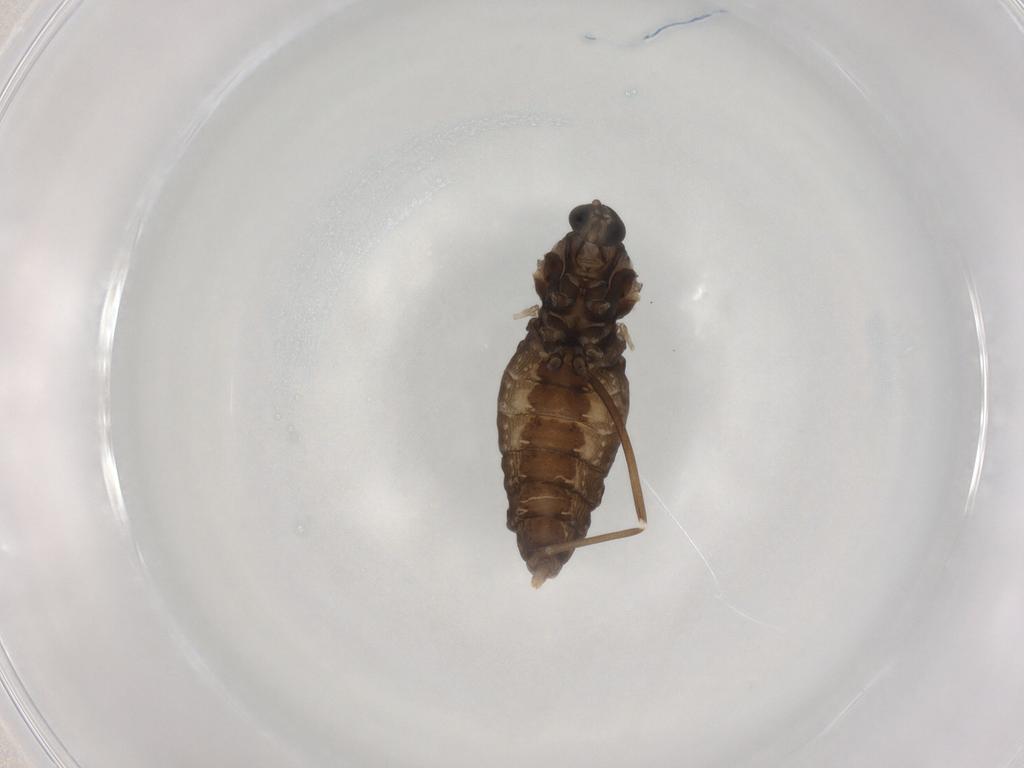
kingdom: Animalia
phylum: Arthropoda
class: Insecta
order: Diptera
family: Cecidomyiidae
